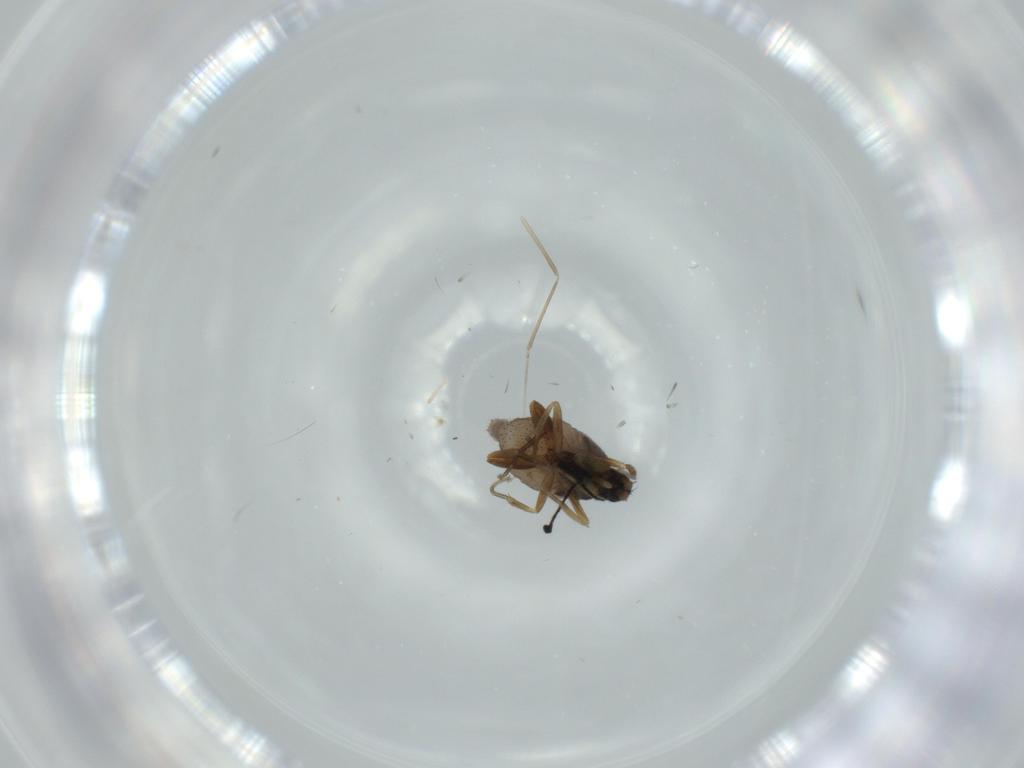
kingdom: Animalia
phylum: Arthropoda
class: Insecta
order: Diptera
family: Phoridae
